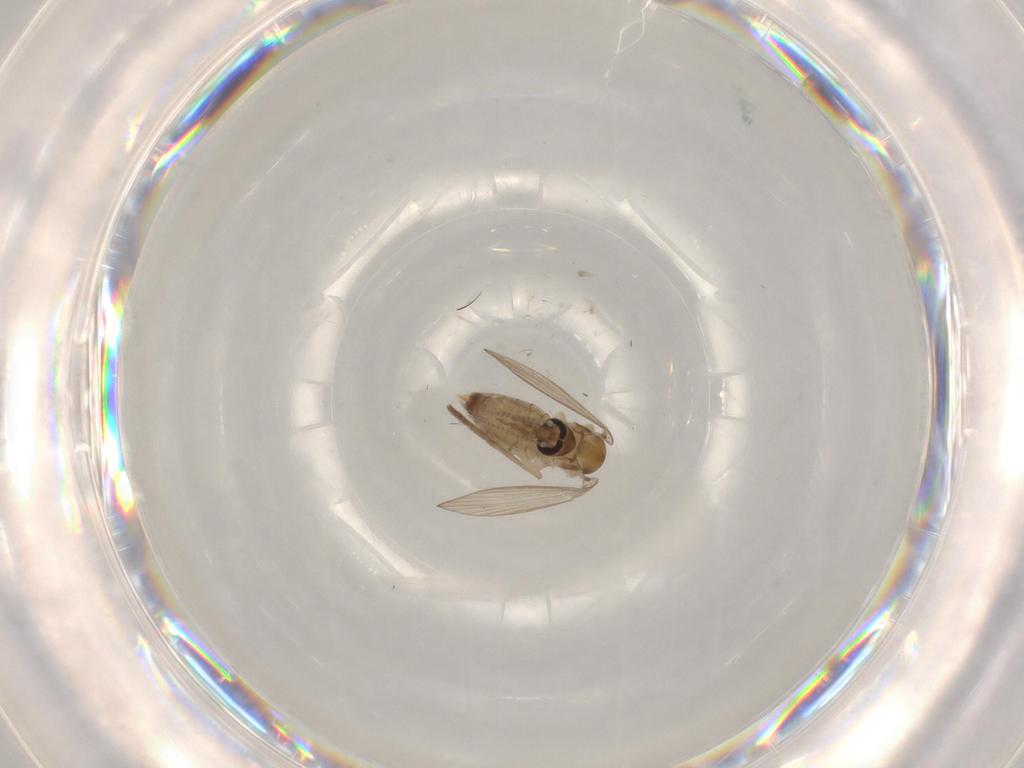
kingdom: Animalia
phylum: Arthropoda
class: Insecta
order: Diptera
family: Psychodidae
